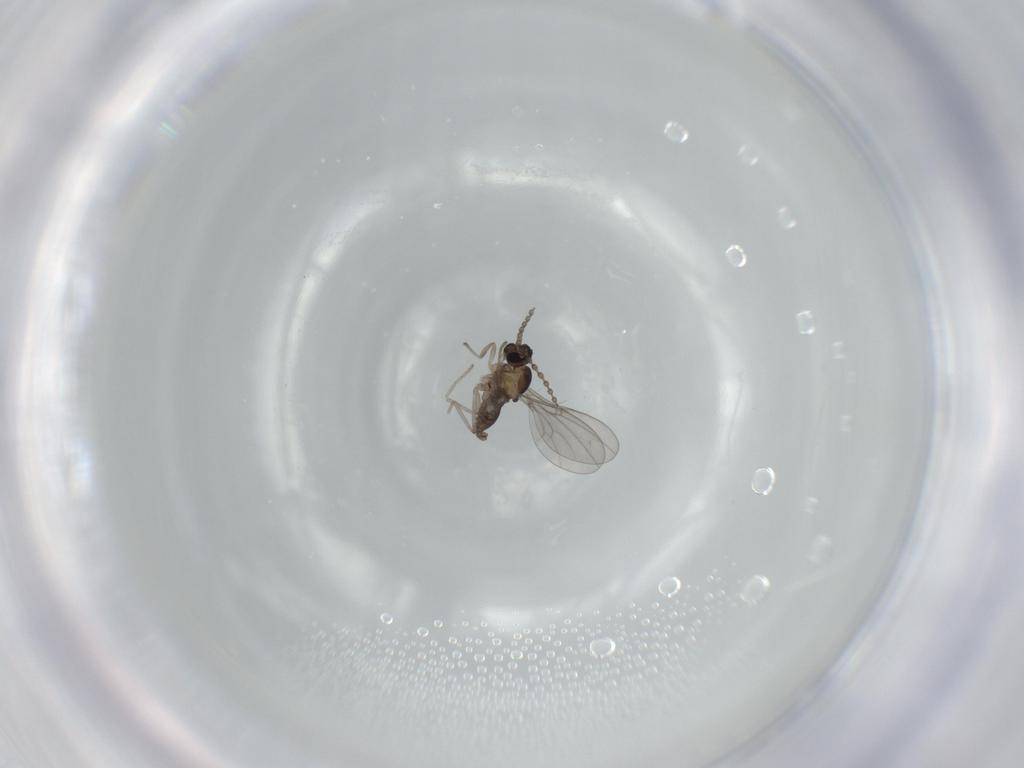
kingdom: Animalia
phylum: Arthropoda
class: Insecta
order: Diptera
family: Cecidomyiidae
